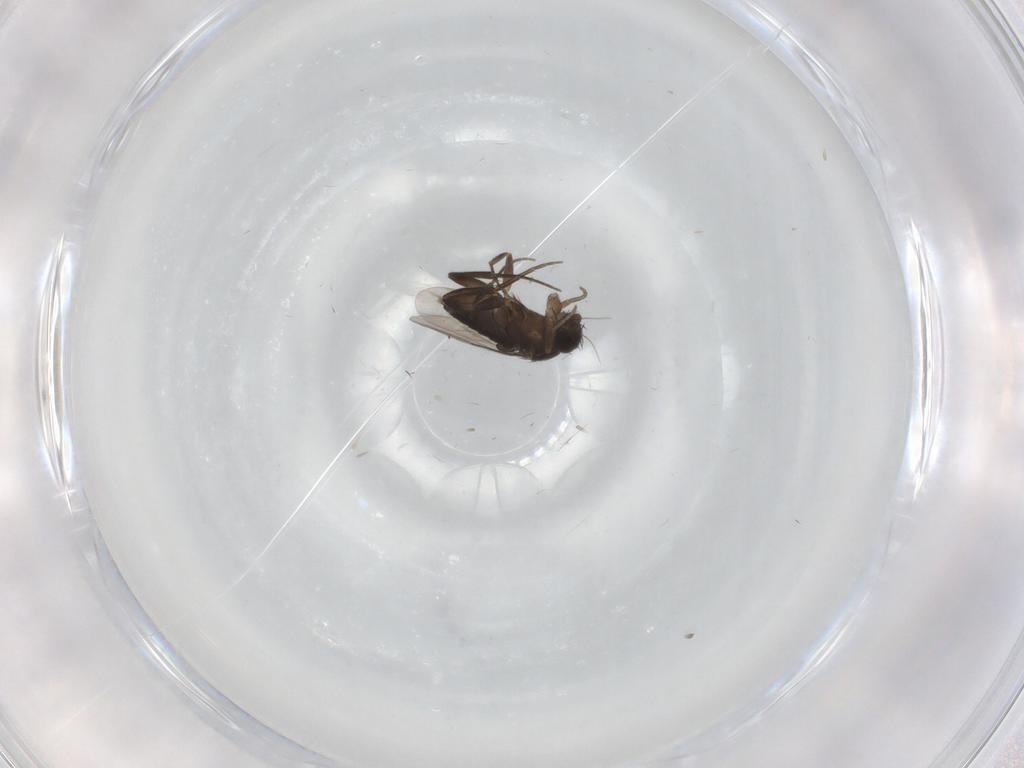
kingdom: Animalia
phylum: Arthropoda
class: Insecta
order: Diptera
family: Phoridae
